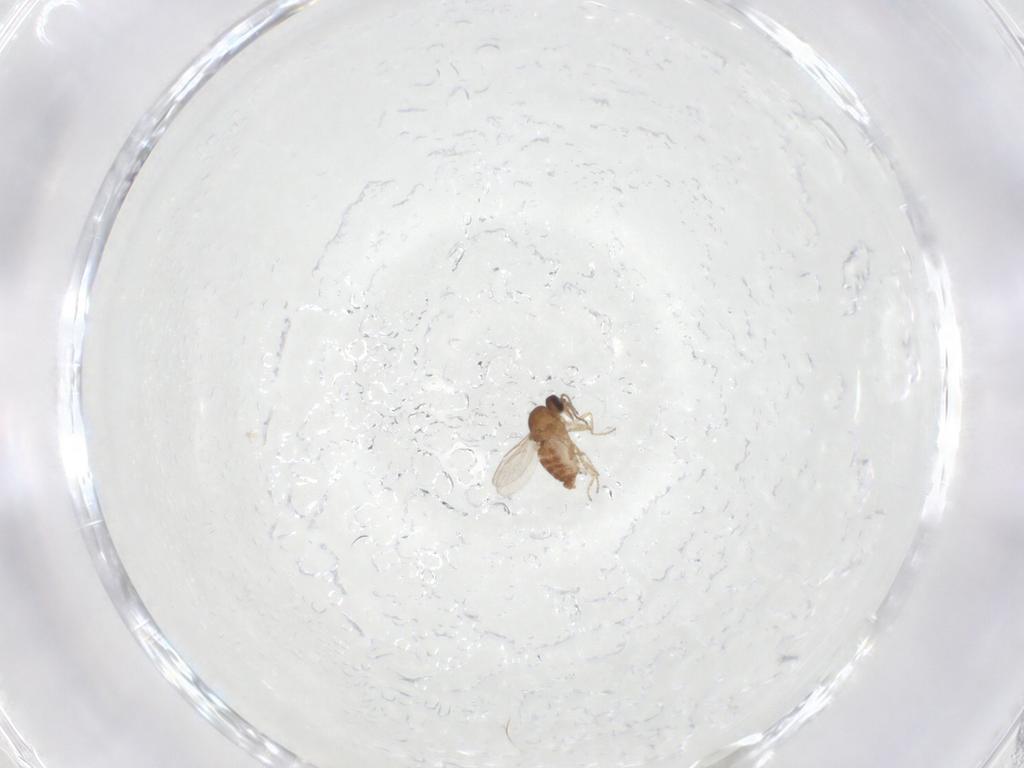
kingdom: Animalia
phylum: Arthropoda
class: Insecta
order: Diptera
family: Ceratopogonidae
